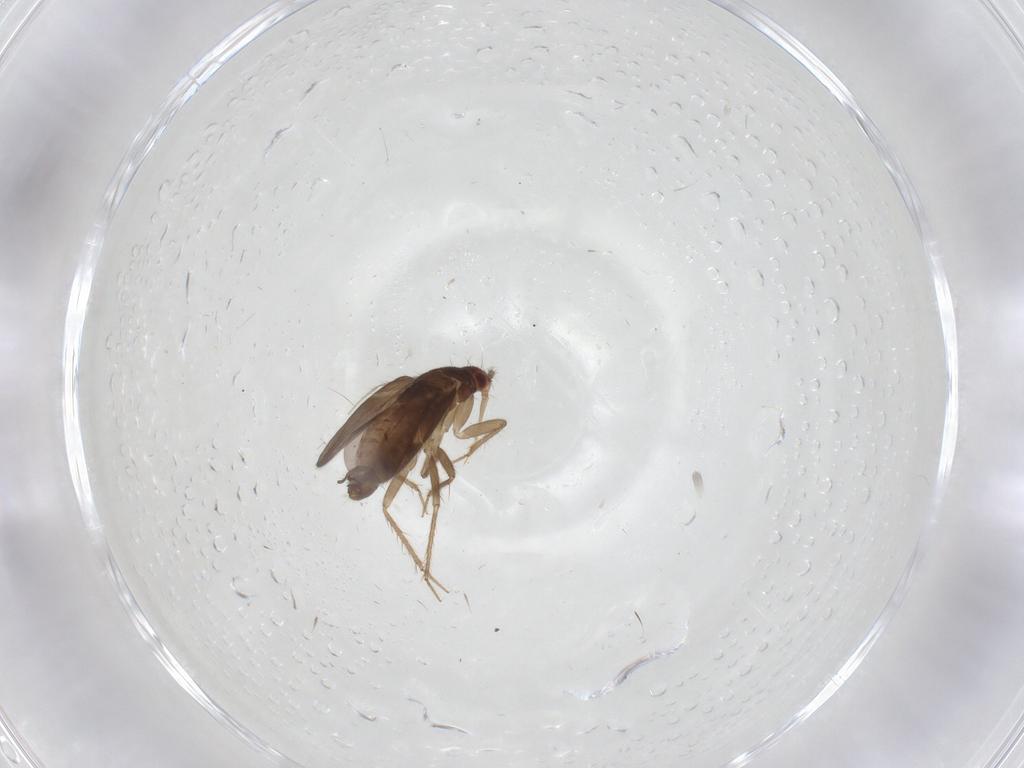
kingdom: Animalia
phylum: Arthropoda
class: Insecta
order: Hemiptera
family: Ceratocombidae
